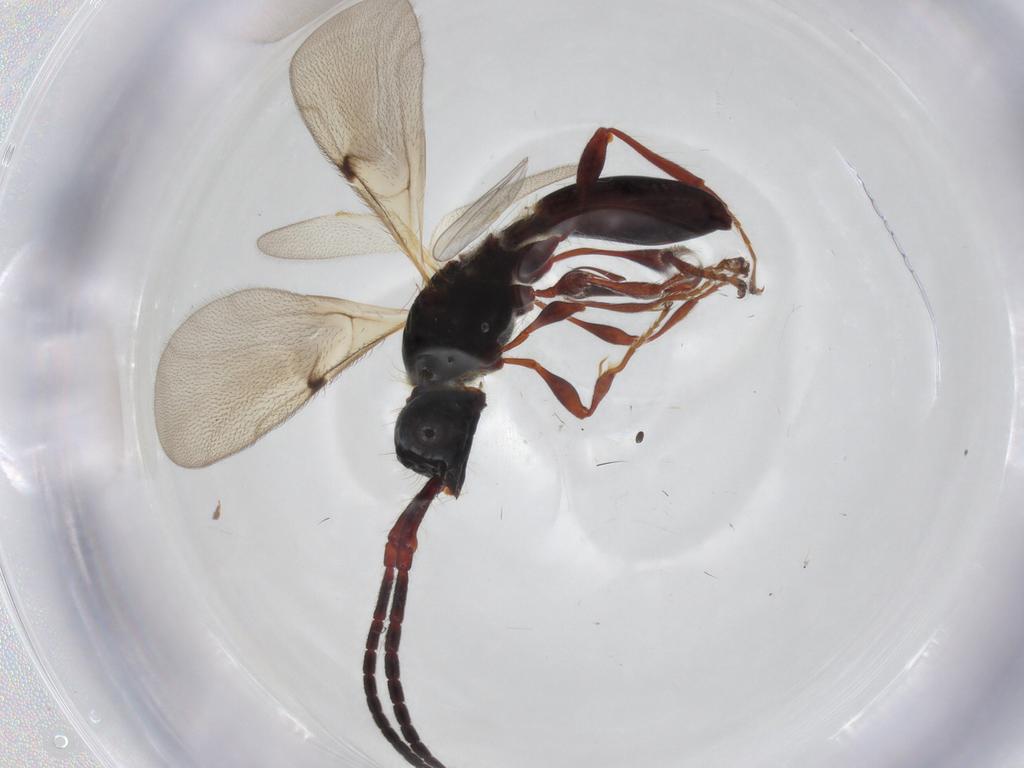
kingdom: Animalia
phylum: Arthropoda
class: Insecta
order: Hymenoptera
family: Diapriidae
